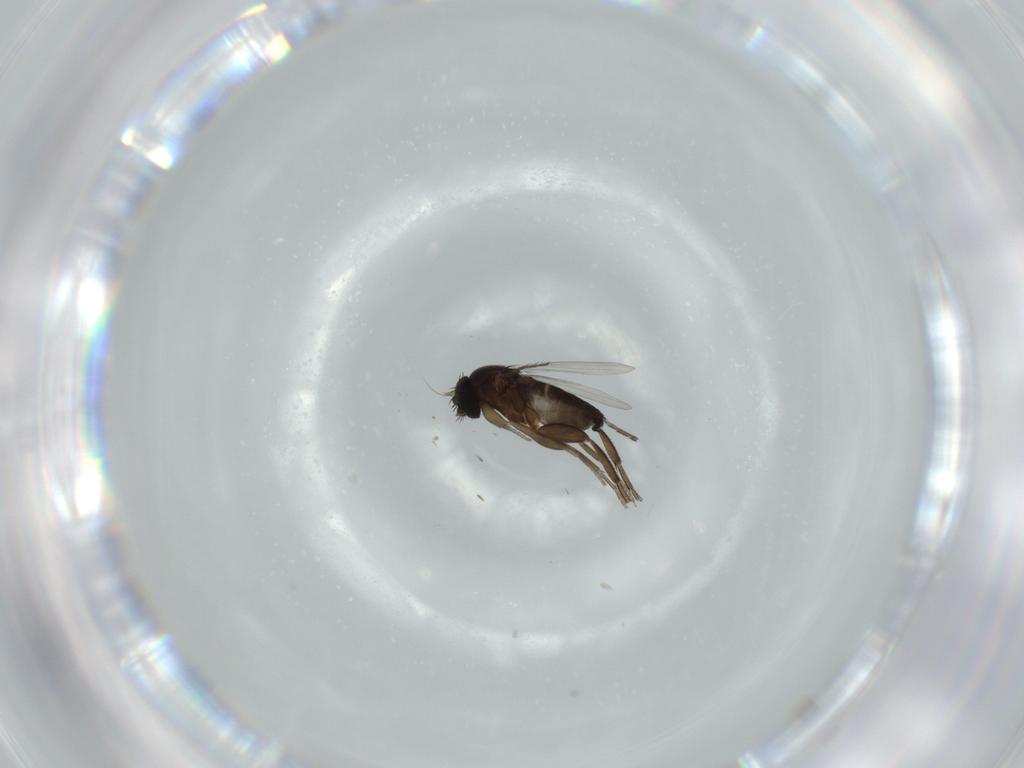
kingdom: Animalia
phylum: Arthropoda
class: Insecta
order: Diptera
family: Phoridae
